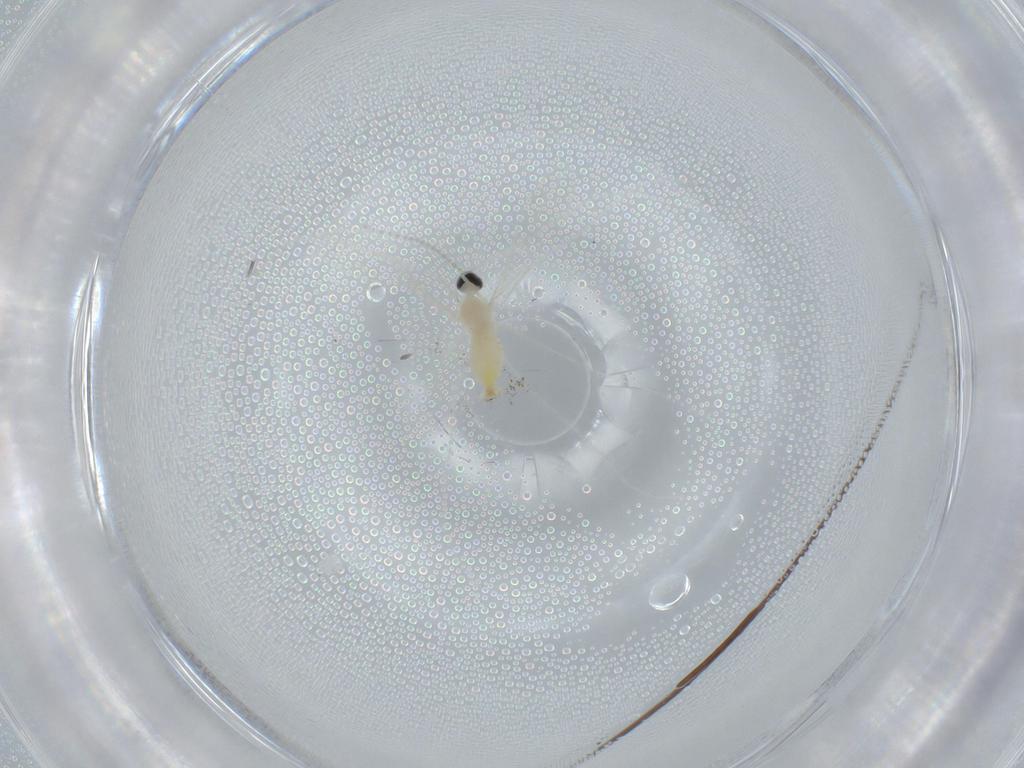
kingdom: Animalia
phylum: Arthropoda
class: Insecta
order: Diptera
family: Cecidomyiidae
